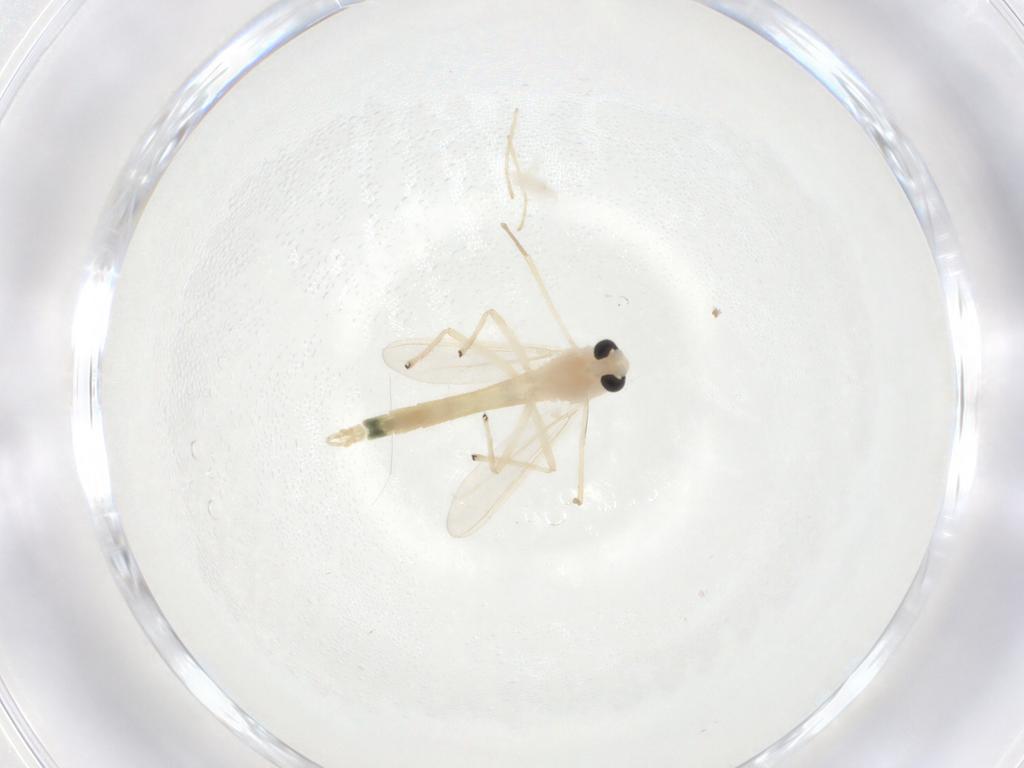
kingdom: Animalia
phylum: Arthropoda
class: Insecta
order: Diptera
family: Chironomidae
